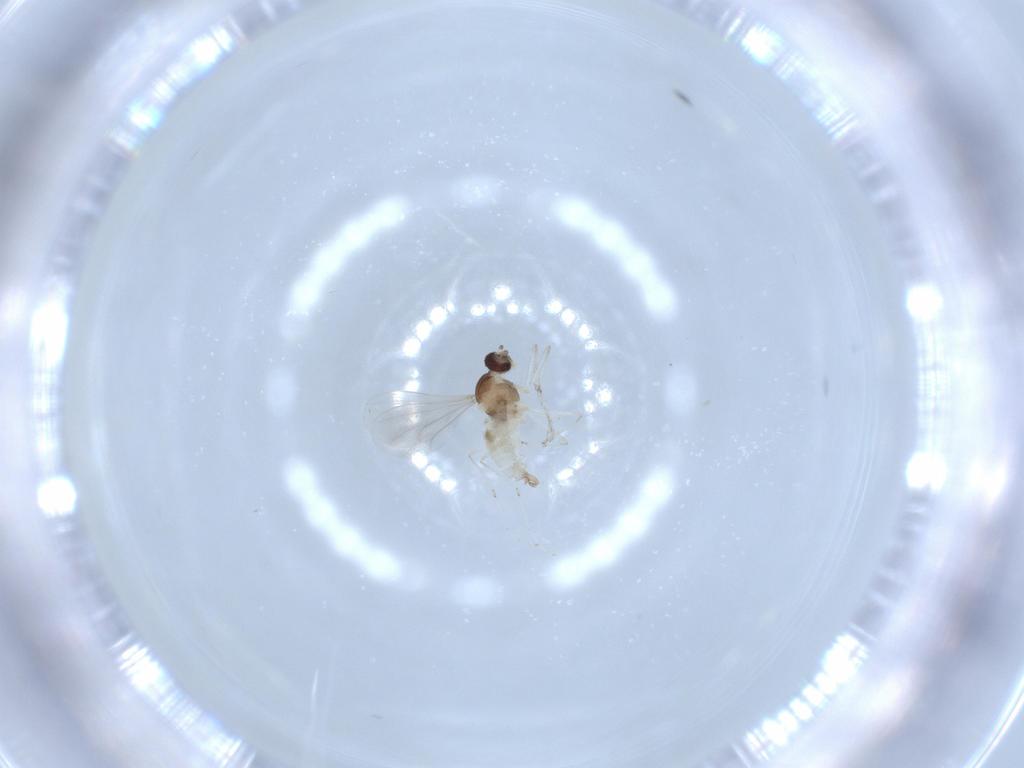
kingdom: Animalia
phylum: Arthropoda
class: Insecta
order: Diptera
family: Cecidomyiidae
